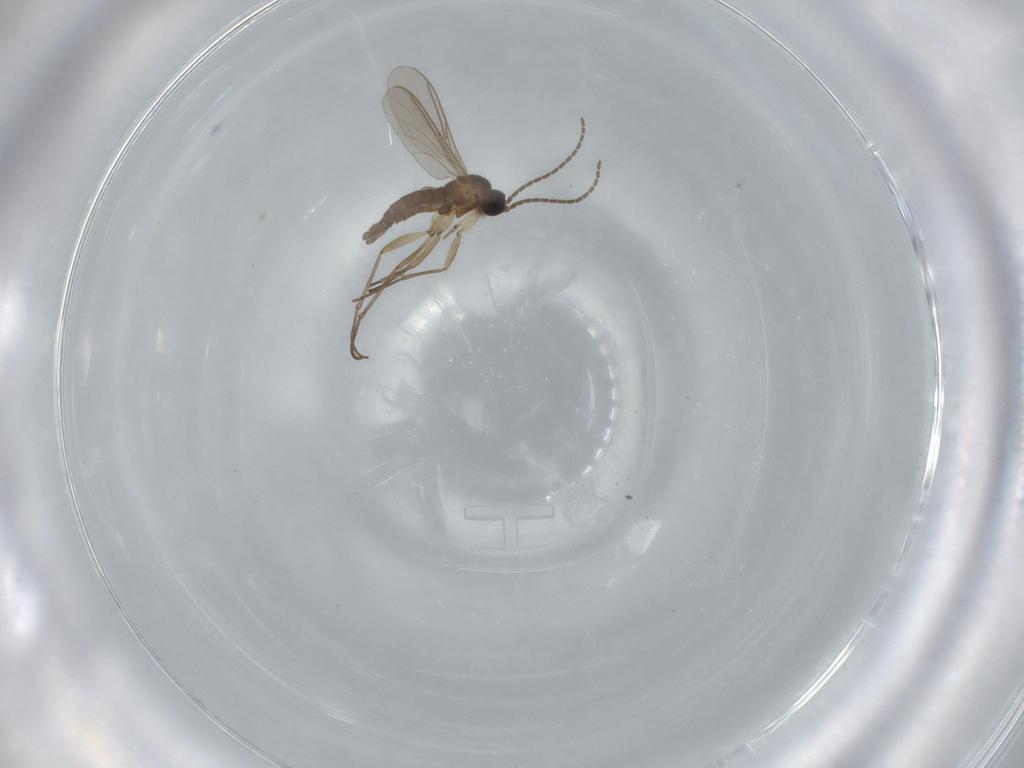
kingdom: Animalia
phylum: Arthropoda
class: Insecta
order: Diptera
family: Sciaridae
